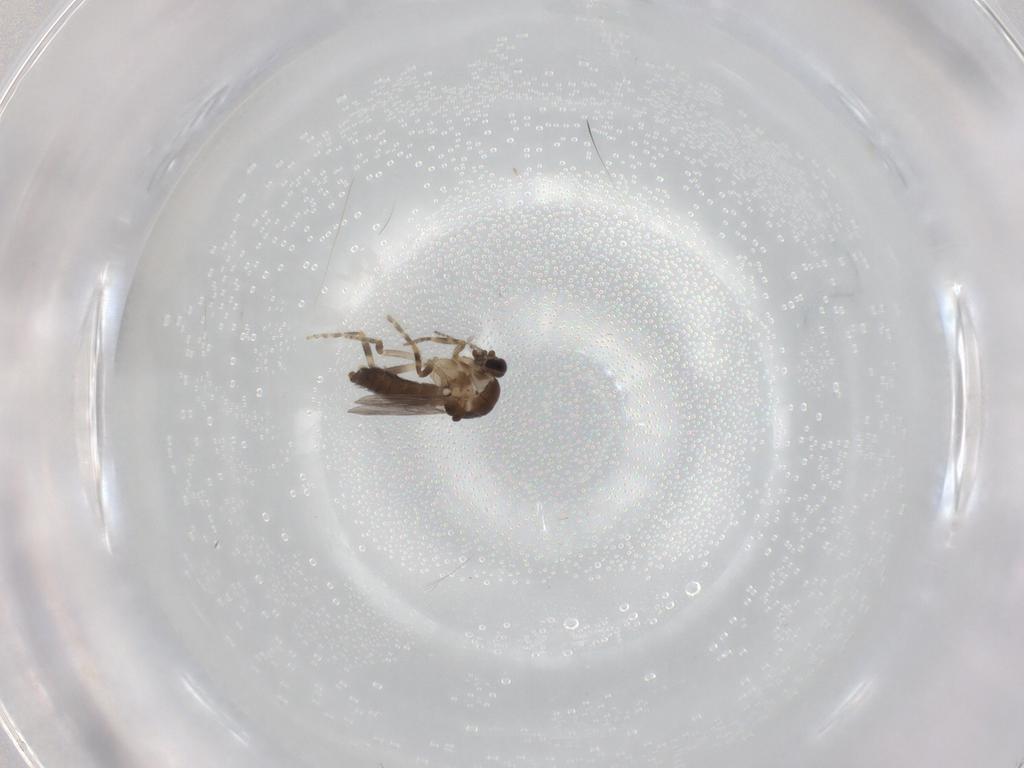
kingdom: Animalia
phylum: Arthropoda
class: Insecta
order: Diptera
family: Ceratopogonidae
